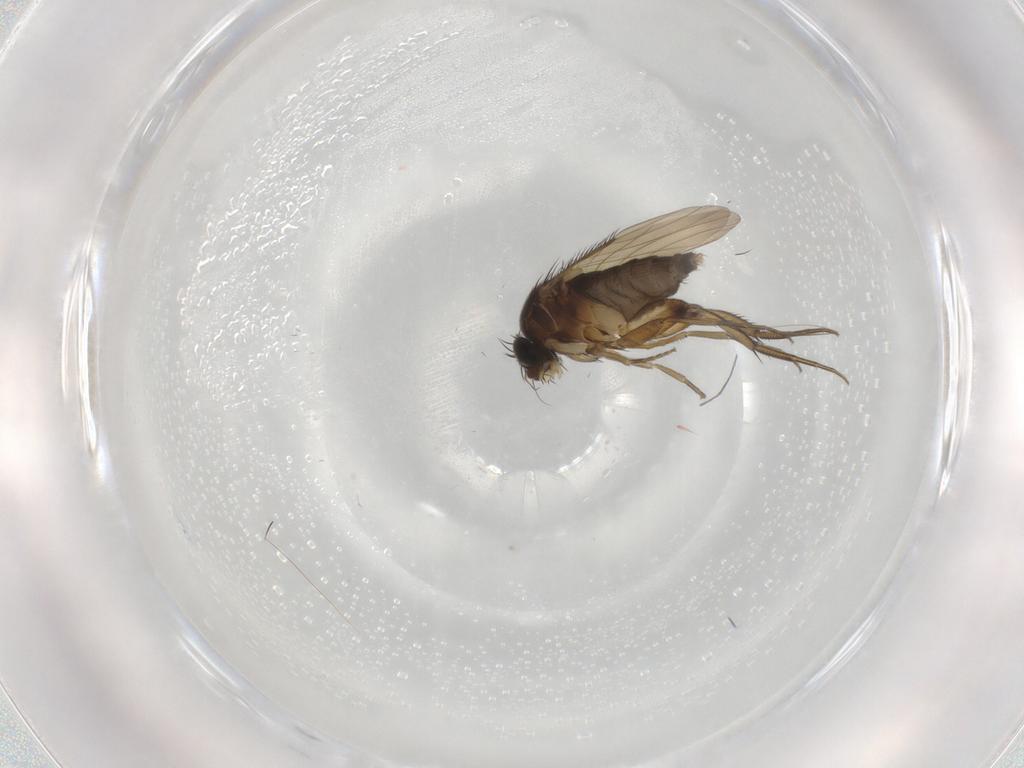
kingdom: Animalia
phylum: Arthropoda
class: Insecta
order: Diptera
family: Phoridae
